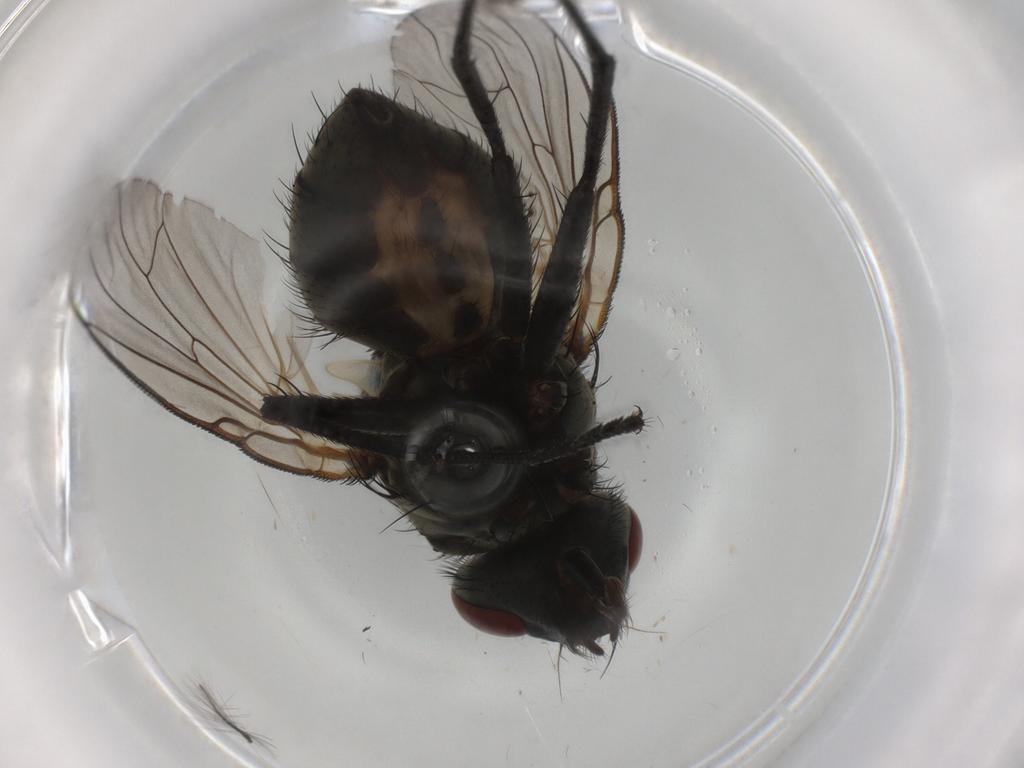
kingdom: Animalia
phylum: Arthropoda
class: Insecta
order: Diptera
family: Muscidae
